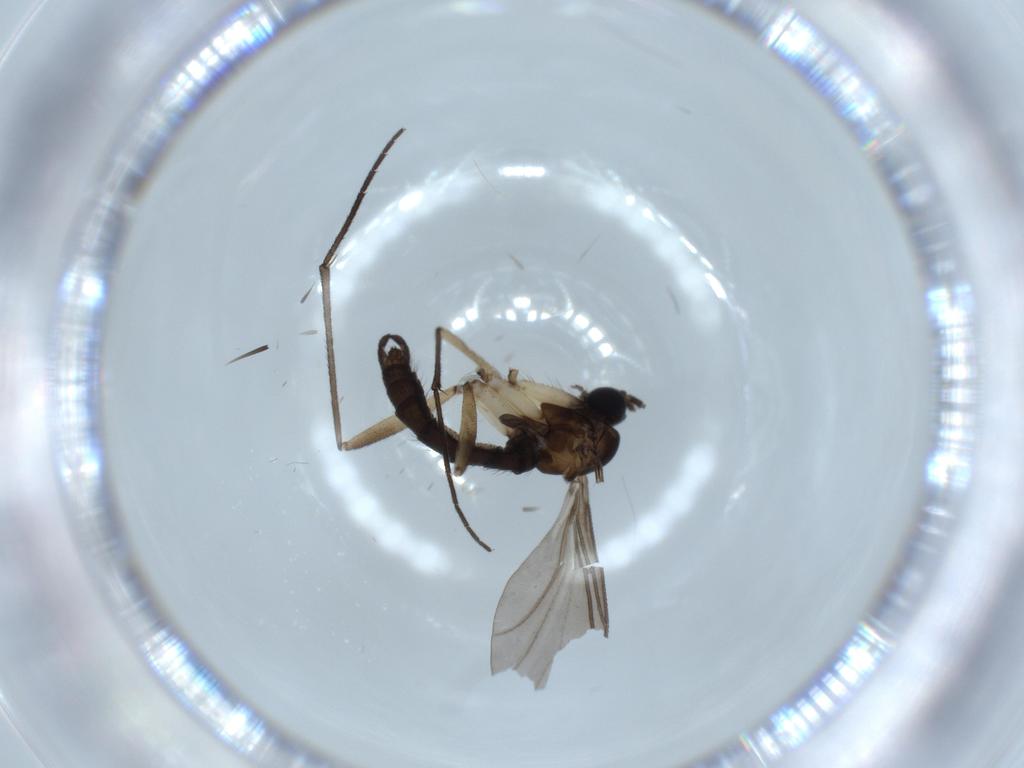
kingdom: Animalia
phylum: Arthropoda
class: Insecta
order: Diptera
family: Sciaridae
